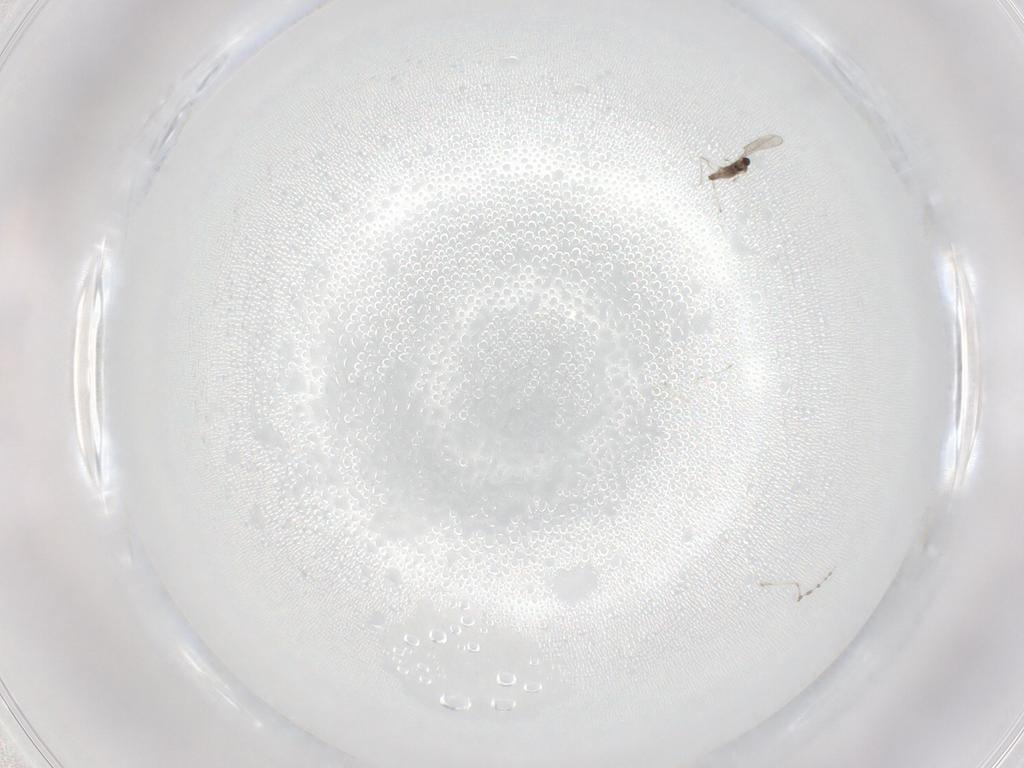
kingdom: Animalia
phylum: Arthropoda
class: Insecta
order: Diptera
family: Cecidomyiidae
